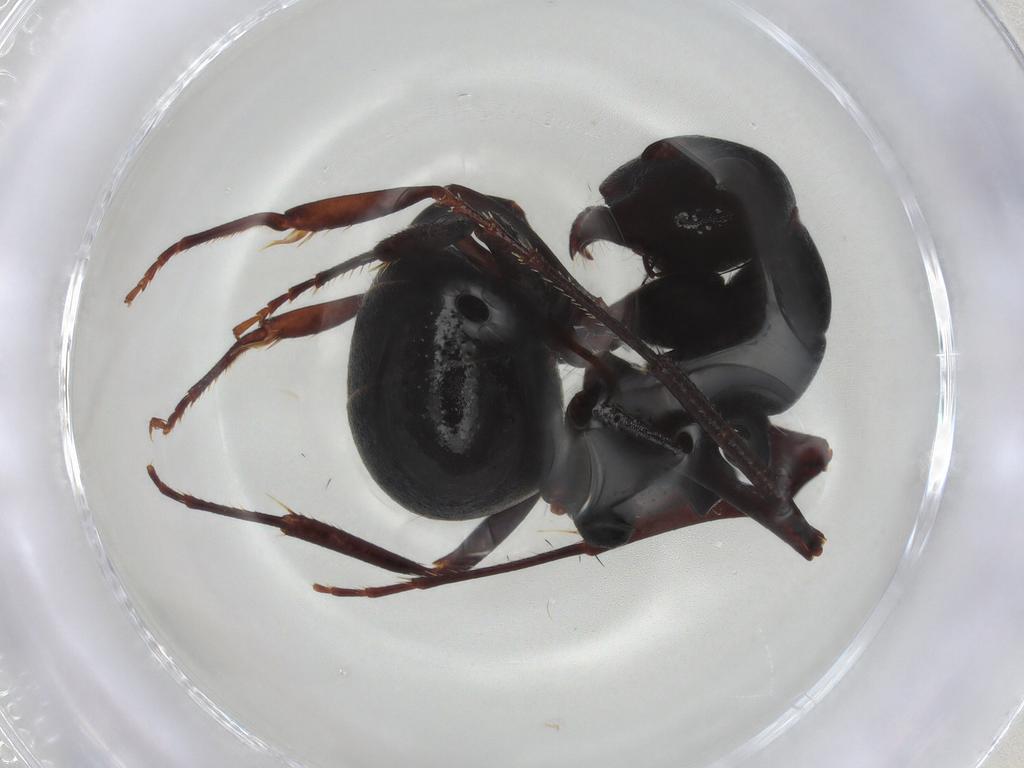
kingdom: Animalia
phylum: Arthropoda
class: Insecta
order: Hymenoptera
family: Formicidae
